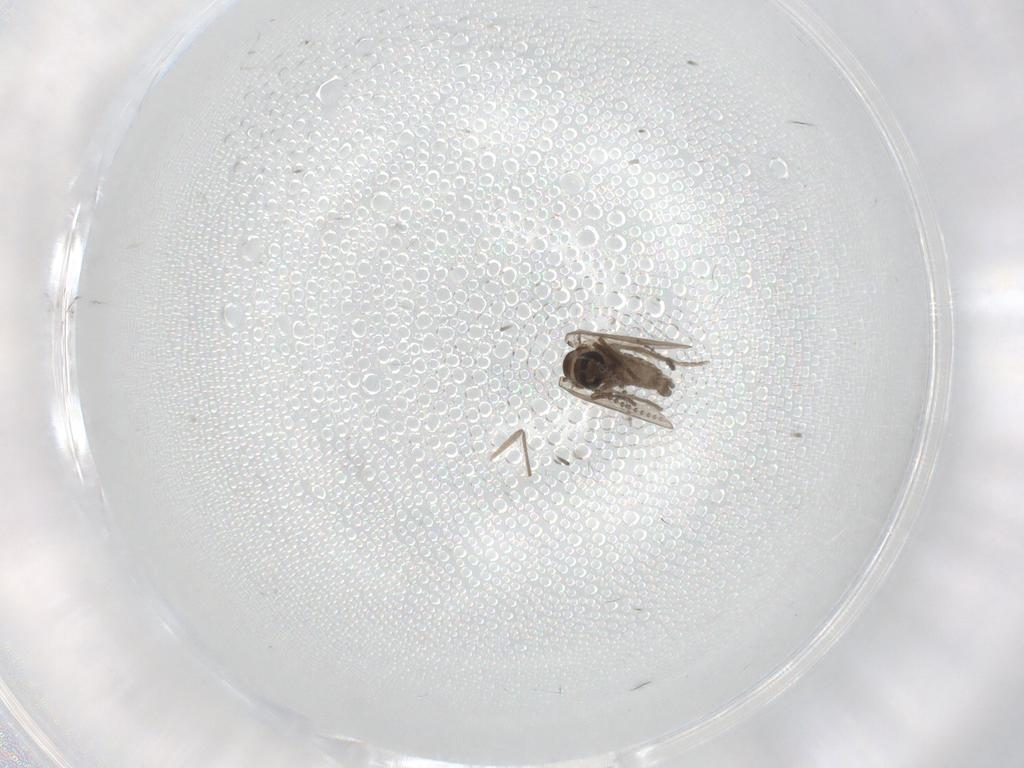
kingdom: Animalia
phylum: Arthropoda
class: Insecta
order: Diptera
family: Psychodidae
